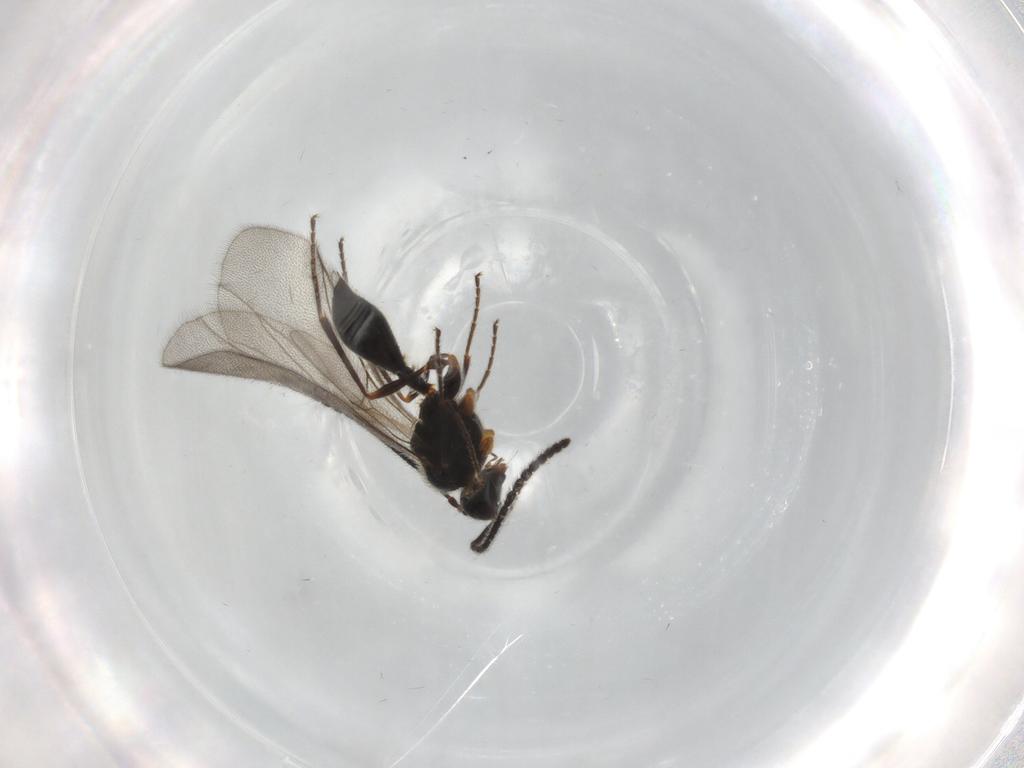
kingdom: Animalia
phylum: Arthropoda
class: Insecta
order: Hymenoptera
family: Diapriidae
